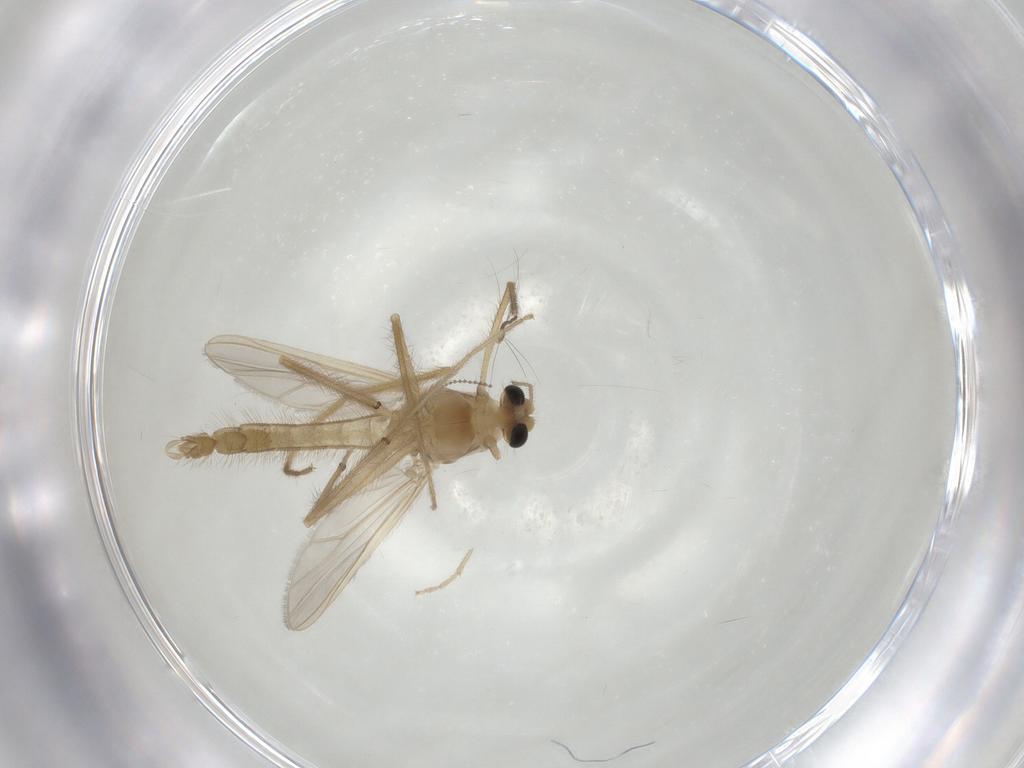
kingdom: Animalia
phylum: Arthropoda
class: Insecta
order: Diptera
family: Chironomidae
